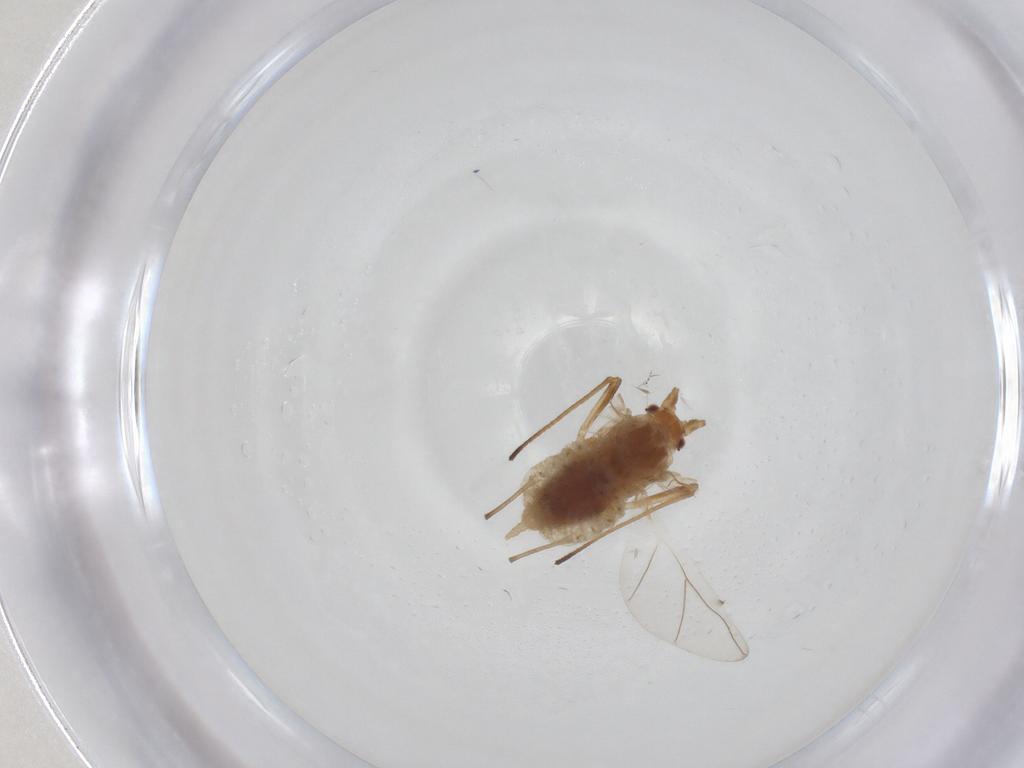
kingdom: Animalia
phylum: Arthropoda
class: Insecta
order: Hemiptera
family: Aphididae
